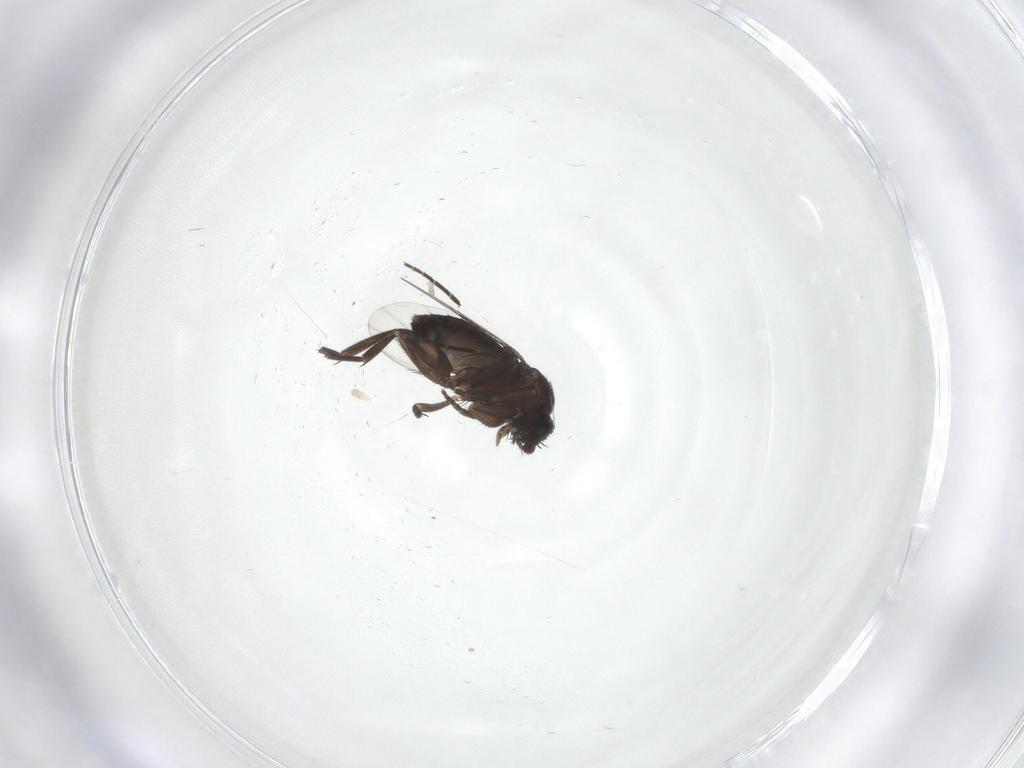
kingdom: Animalia
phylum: Arthropoda
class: Insecta
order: Diptera
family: Phoridae
